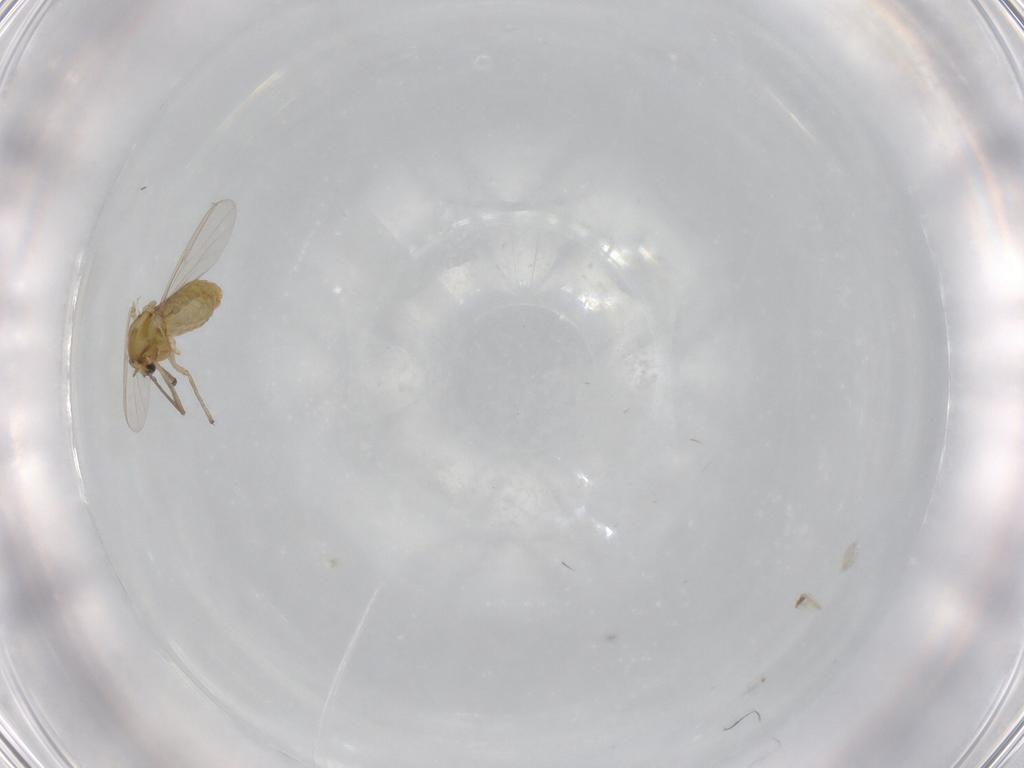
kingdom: Animalia
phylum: Arthropoda
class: Insecta
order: Diptera
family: Chironomidae
